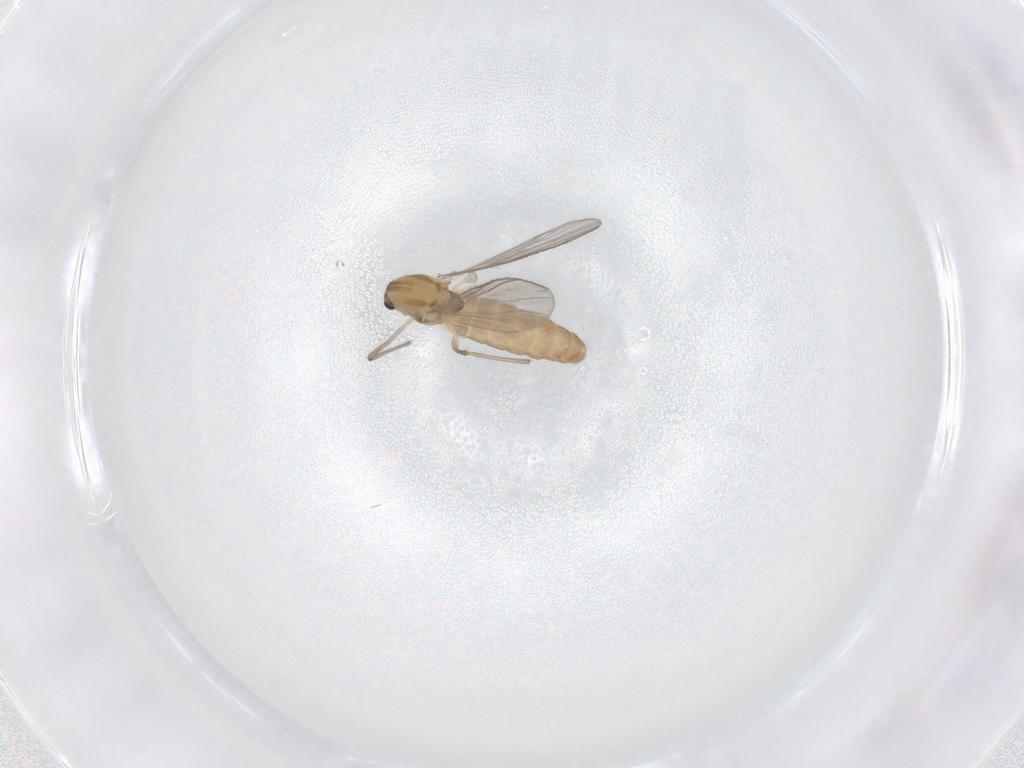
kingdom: Animalia
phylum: Arthropoda
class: Insecta
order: Diptera
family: Chironomidae
